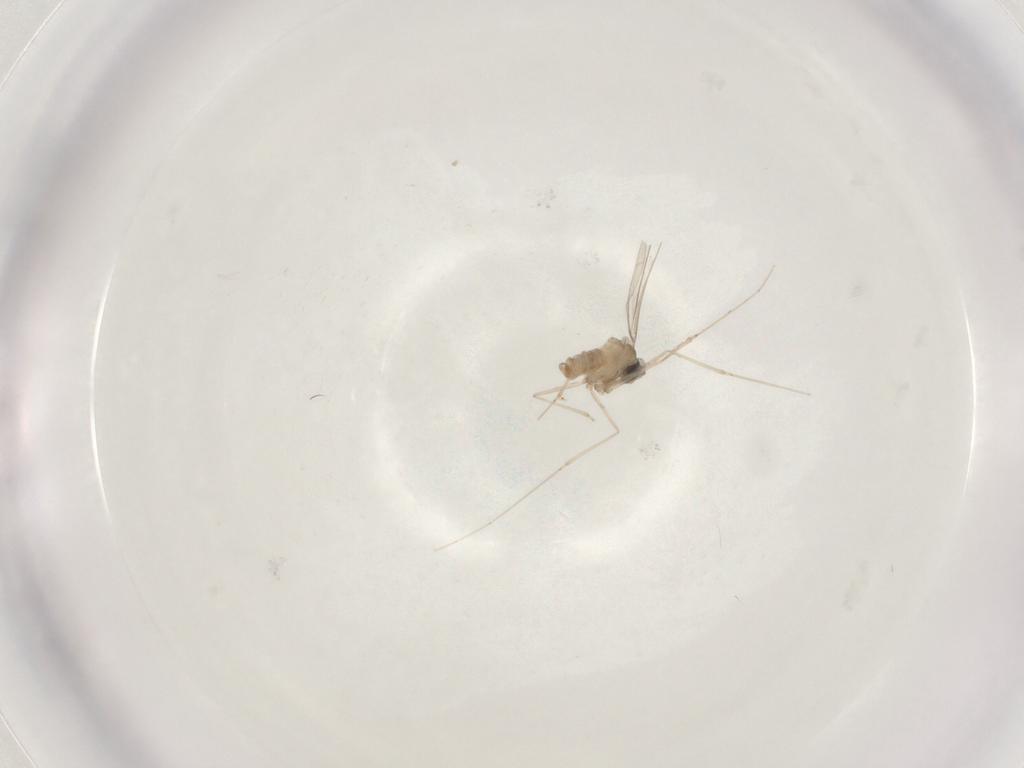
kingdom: Animalia
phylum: Arthropoda
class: Insecta
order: Diptera
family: Cecidomyiidae
